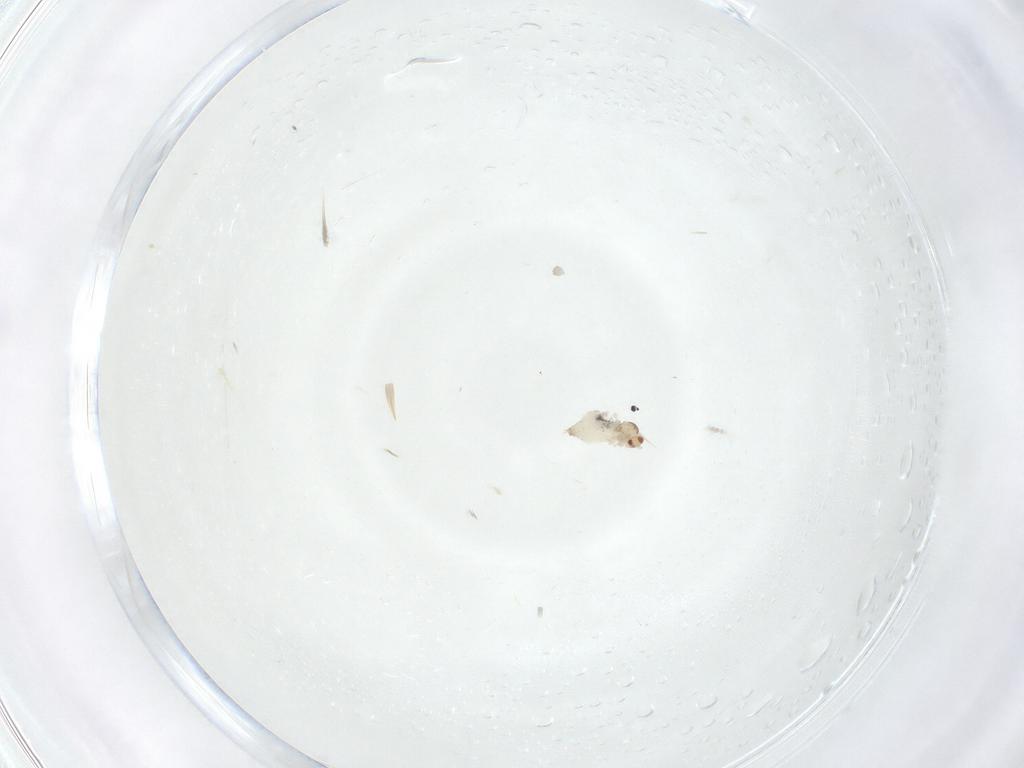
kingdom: Animalia
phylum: Arthropoda
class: Insecta
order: Diptera
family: Cecidomyiidae
